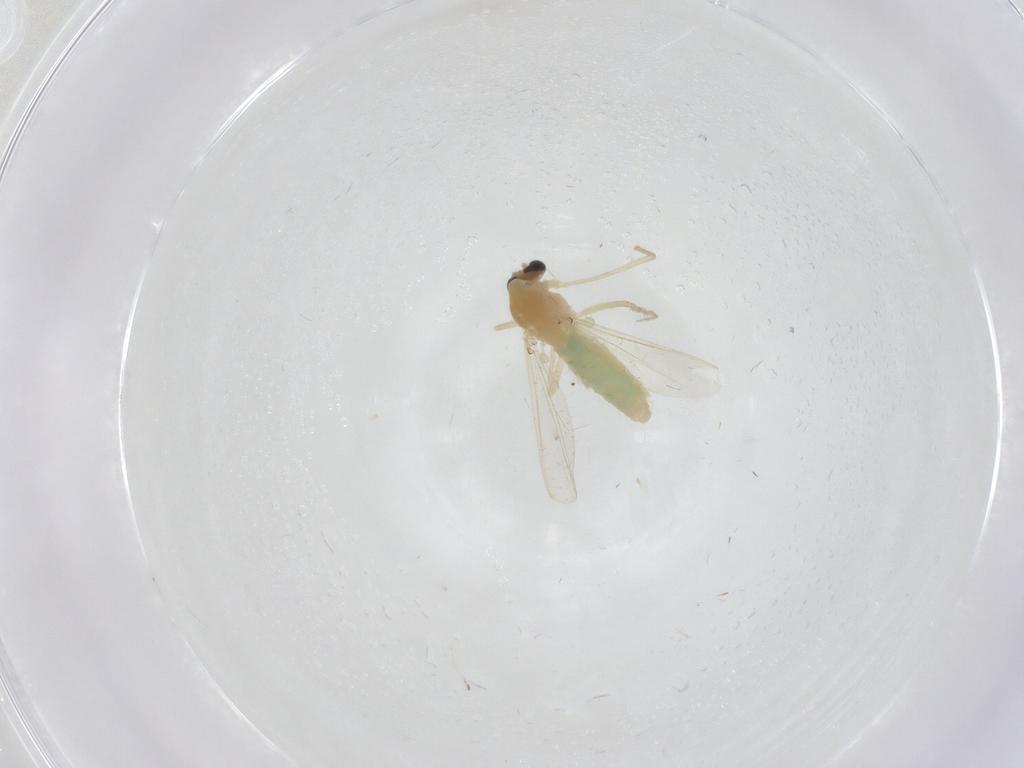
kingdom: Animalia
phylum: Arthropoda
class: Insecta
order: Diptera
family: Chironomidae
